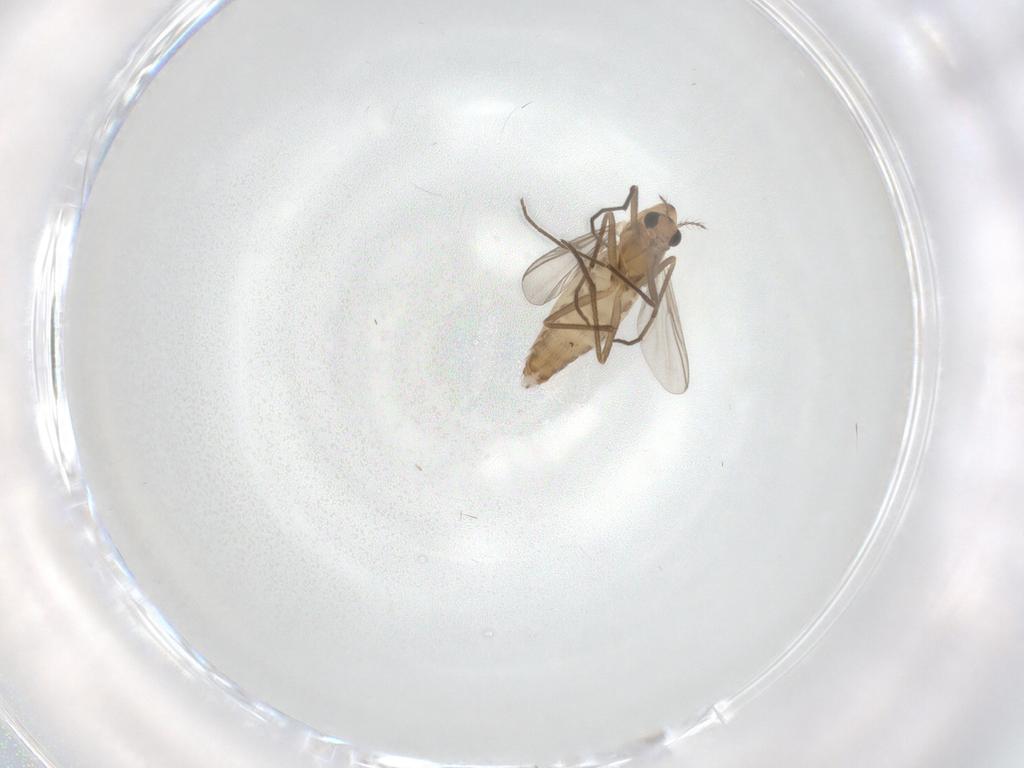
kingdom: Animalia
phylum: Arthropoda
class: Insecta
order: Diptera
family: Chironomidae
